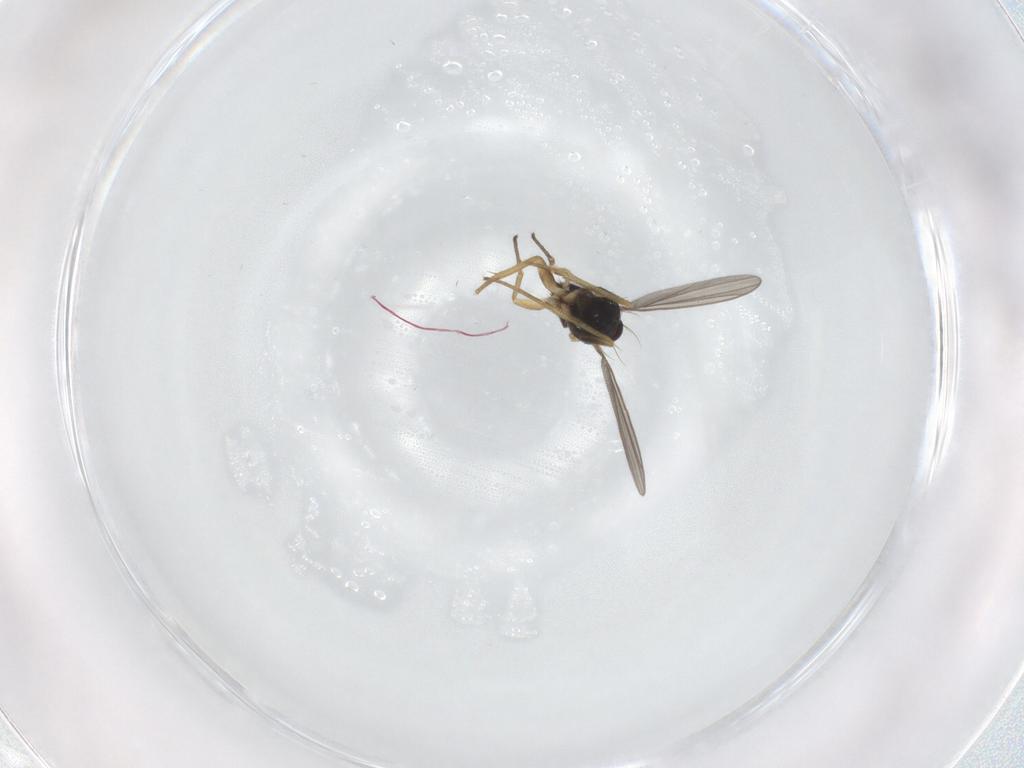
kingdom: Animalia
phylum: Arthropoda
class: Insecta
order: Diptera
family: Dolichopodidae
